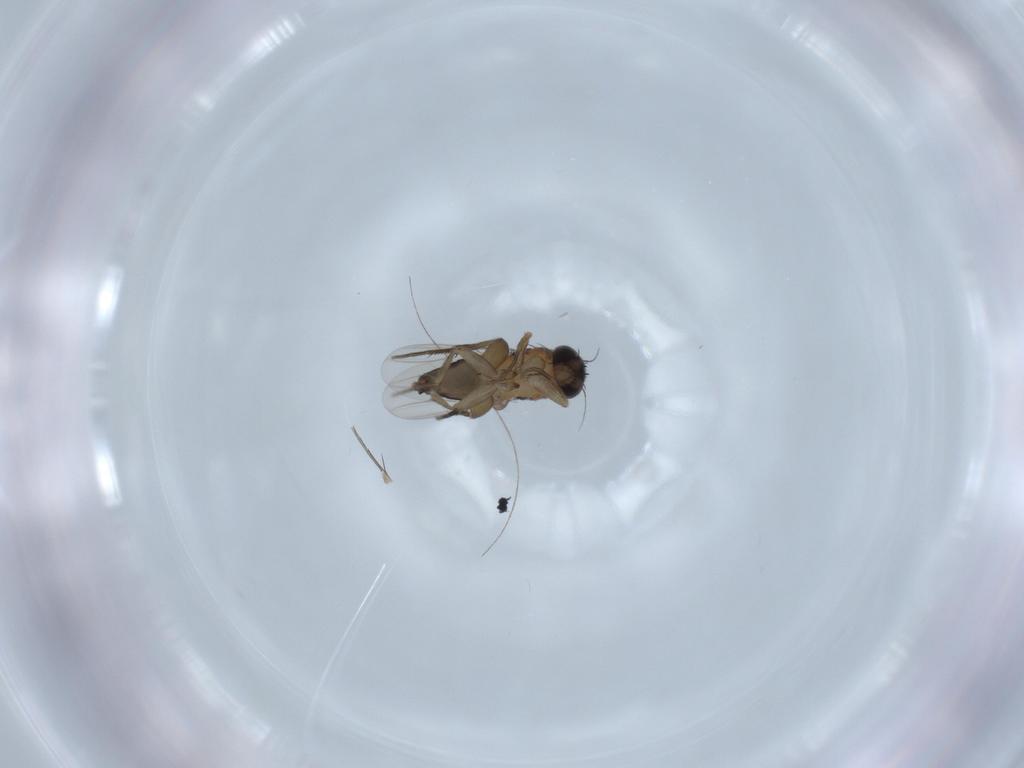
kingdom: Animalia
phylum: Arthropoda
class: Insecta
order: Diptera
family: Phoridae
